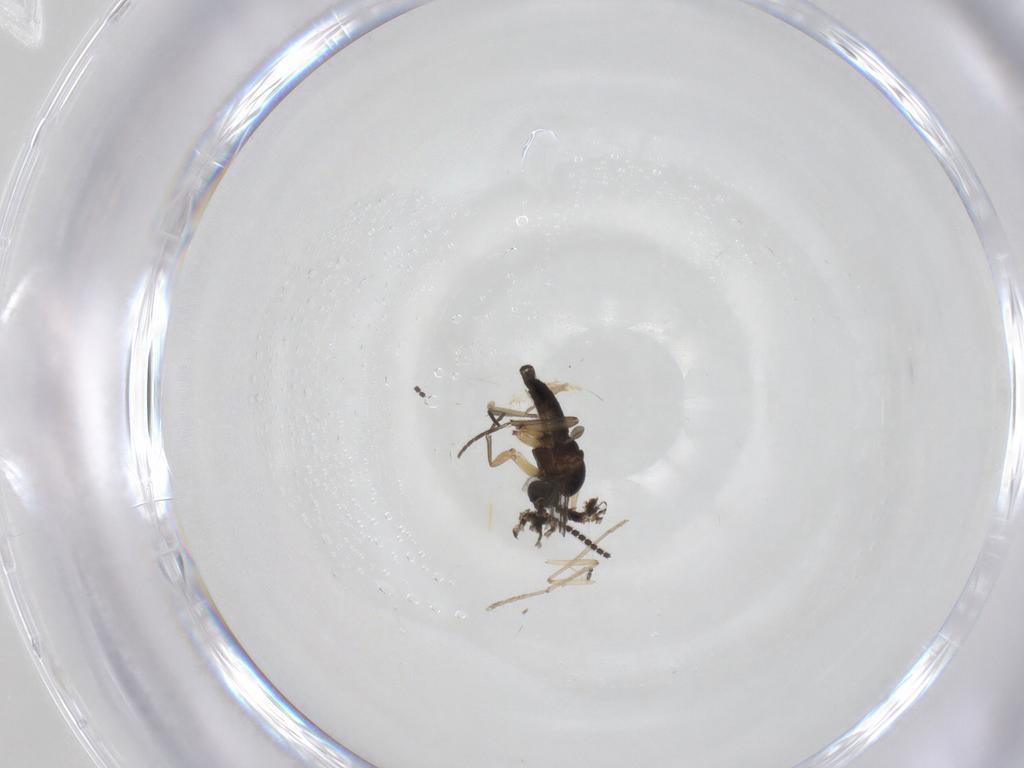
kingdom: Animalia
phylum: Arthropoda
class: Insecta
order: Diptera
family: Sciaridae
